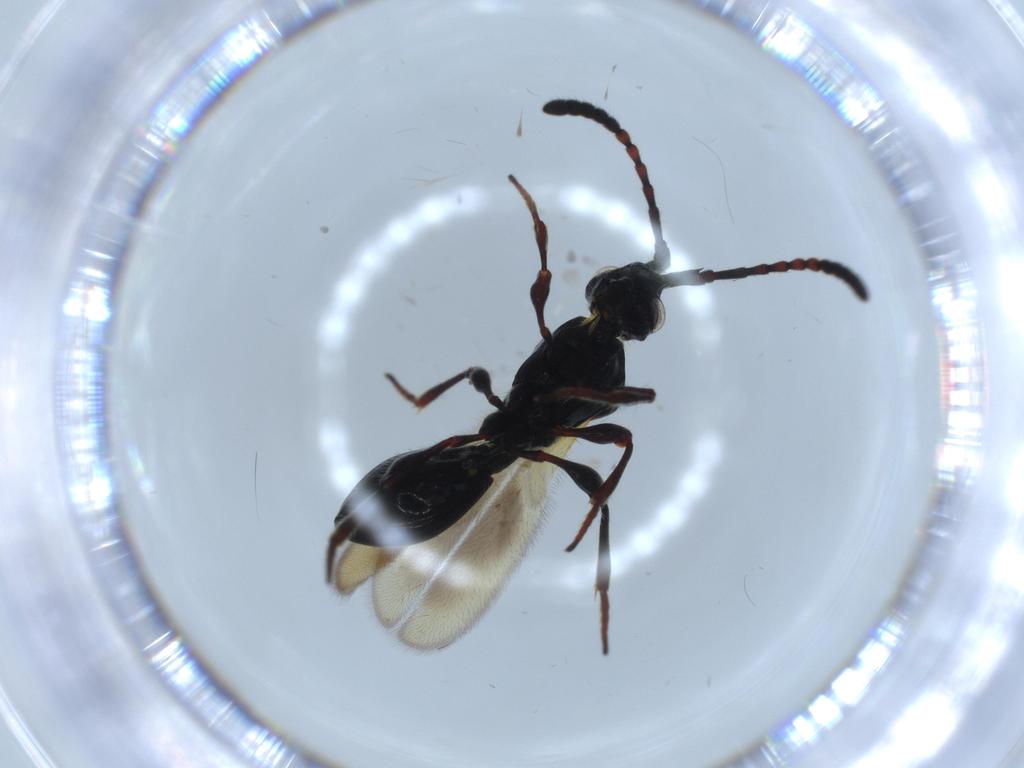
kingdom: Animalia
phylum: Arthropoda
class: Insecta
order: Hymenoptera
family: Diapriidae
